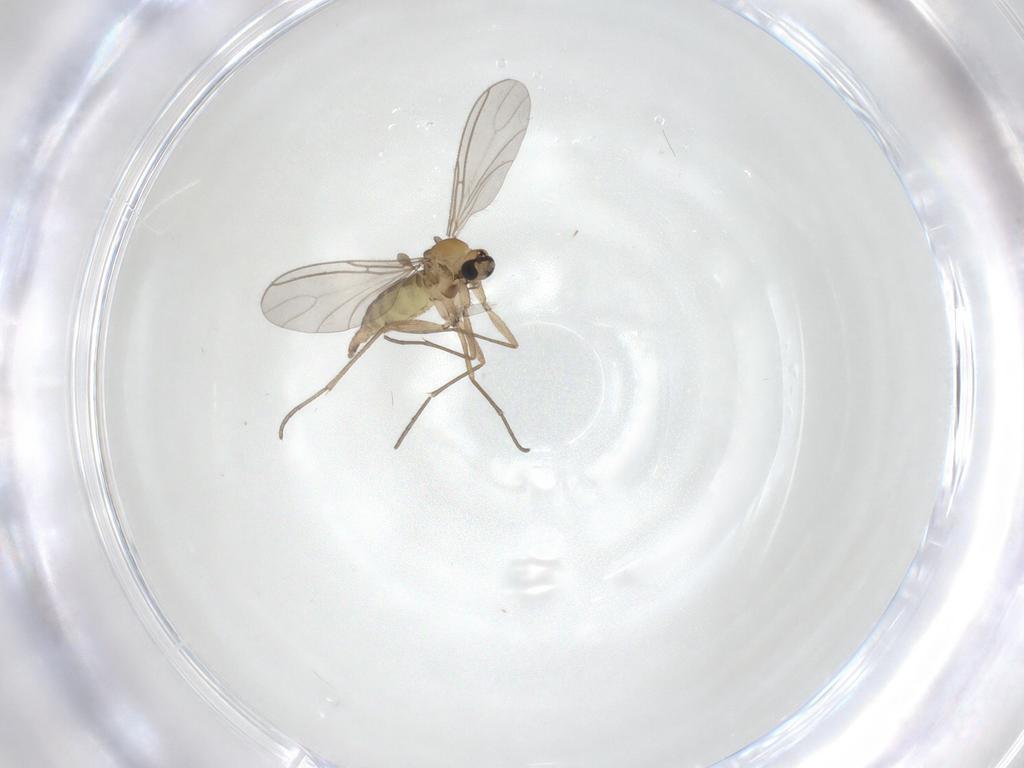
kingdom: Animalia
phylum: Arthropoda
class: Insecta
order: Diptera
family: Sciaridae
